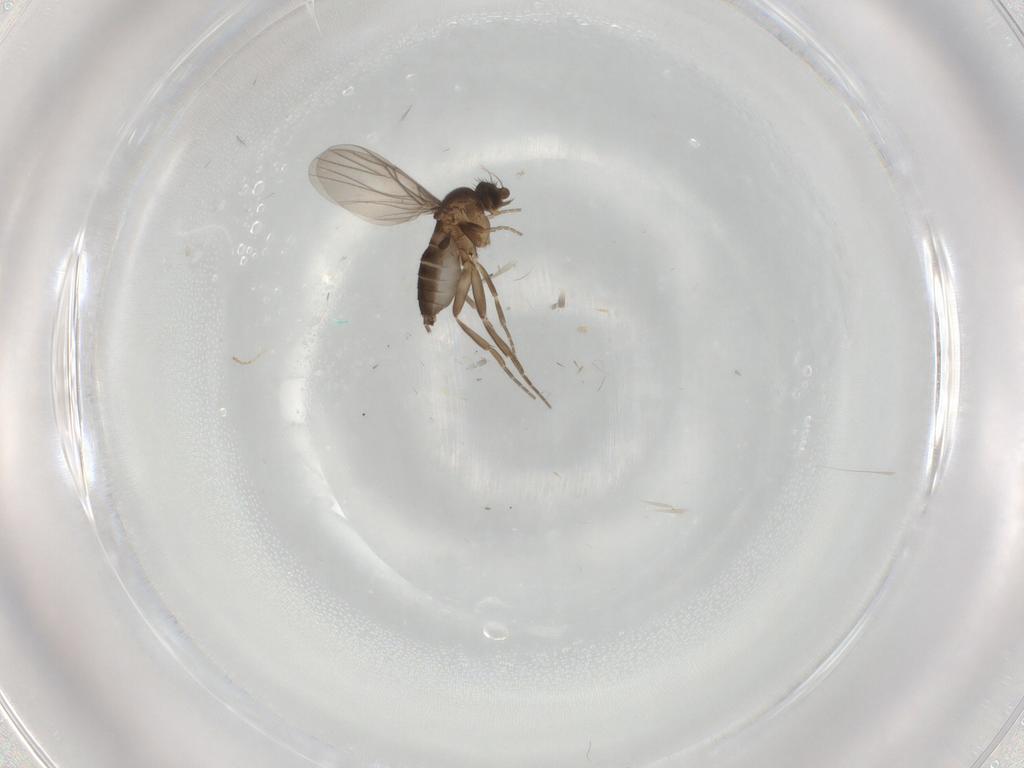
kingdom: Animalia
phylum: Arthropoda
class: Insecta
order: Diptera
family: Phoridae
